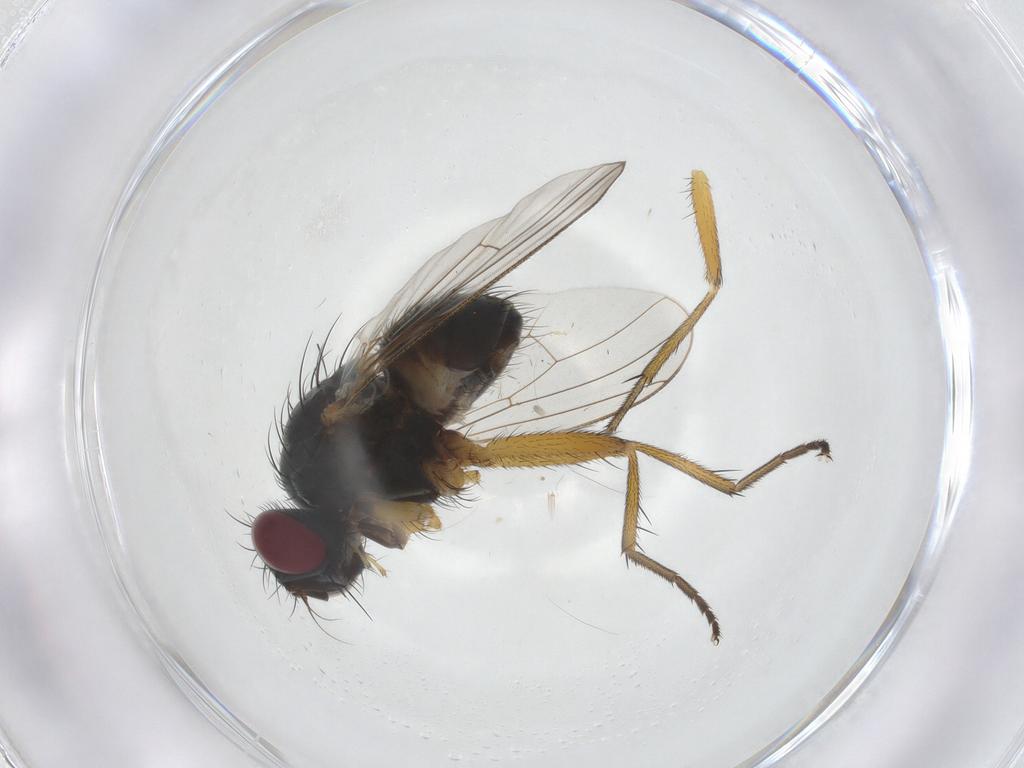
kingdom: Animalia
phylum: Arthropoda
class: Insecta
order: Diptera
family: Muscidae
